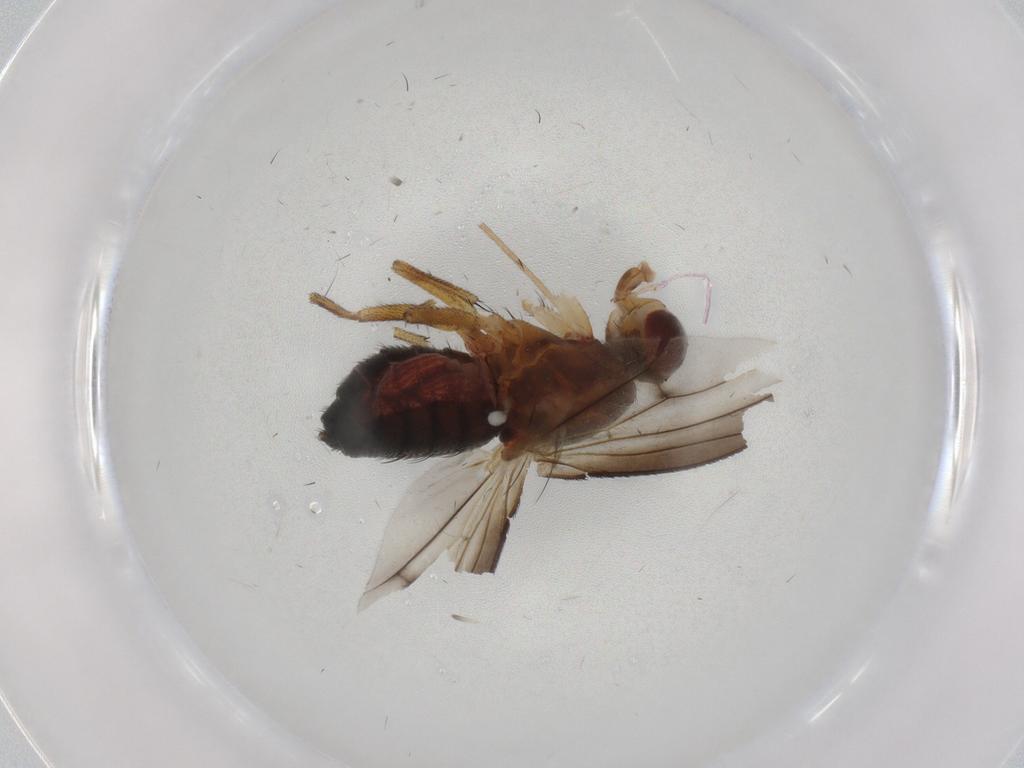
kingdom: Animalia
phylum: Arthropoda
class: Insecta
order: Diptera
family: Heleomyzidae
